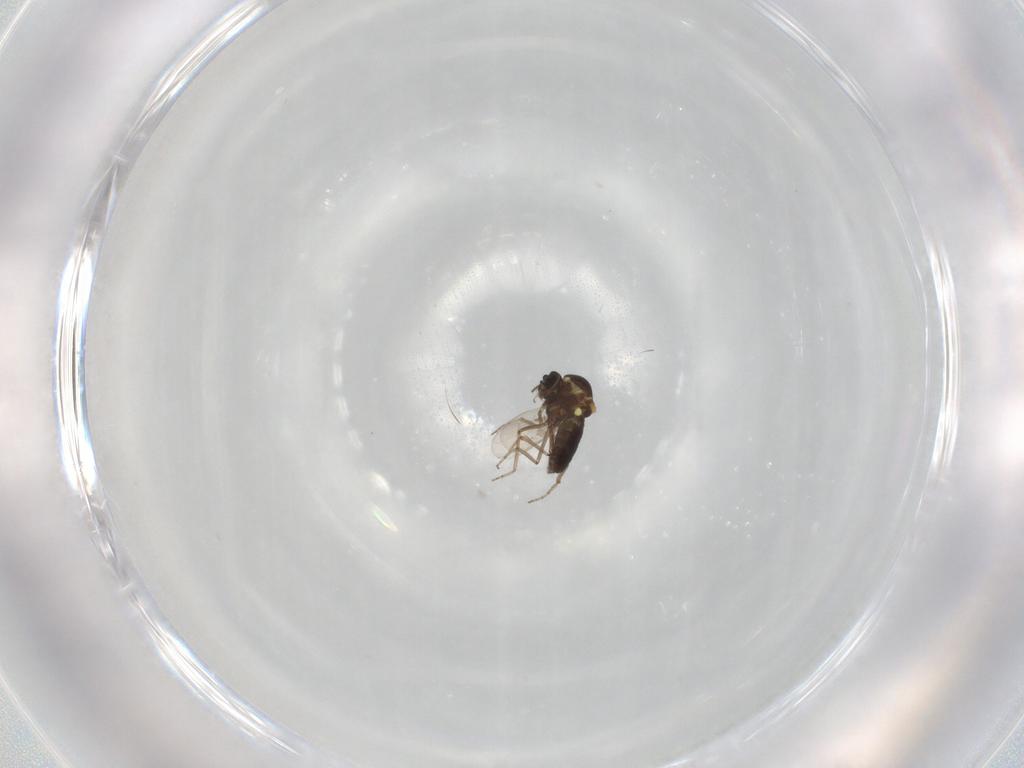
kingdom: Animalia
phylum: Arthropoda
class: Insecta
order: Diptera
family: Ceratopogonidae
